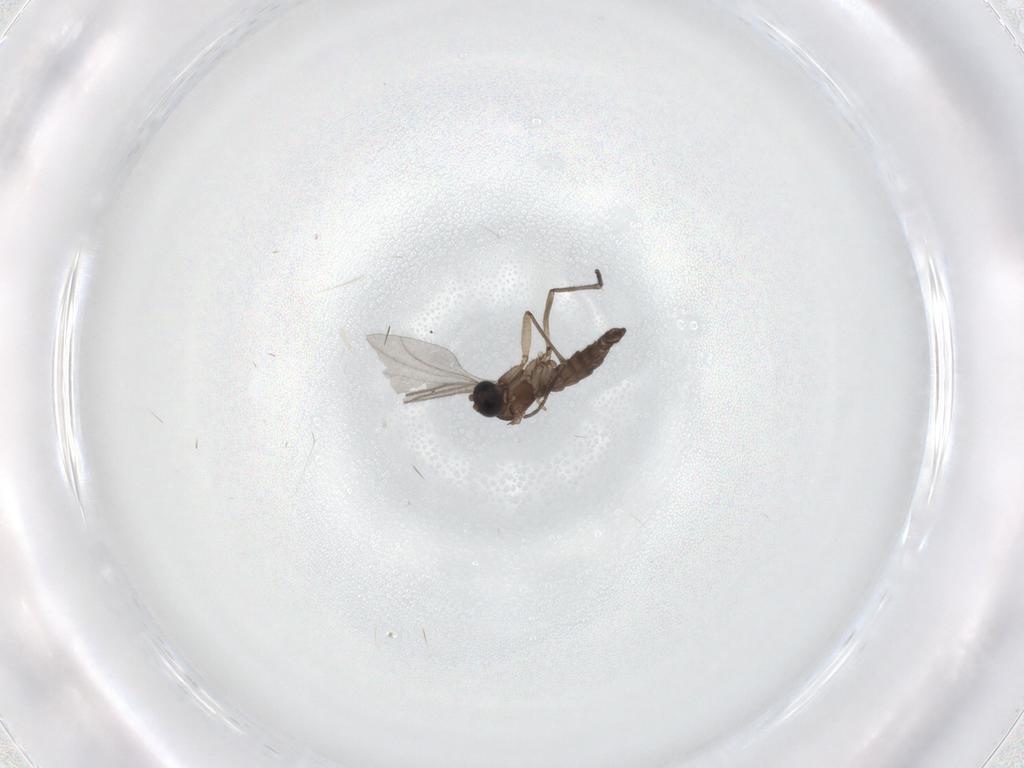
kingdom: Animalia
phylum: Arthropoda
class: Insecta
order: Diptera
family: Sciaridae
